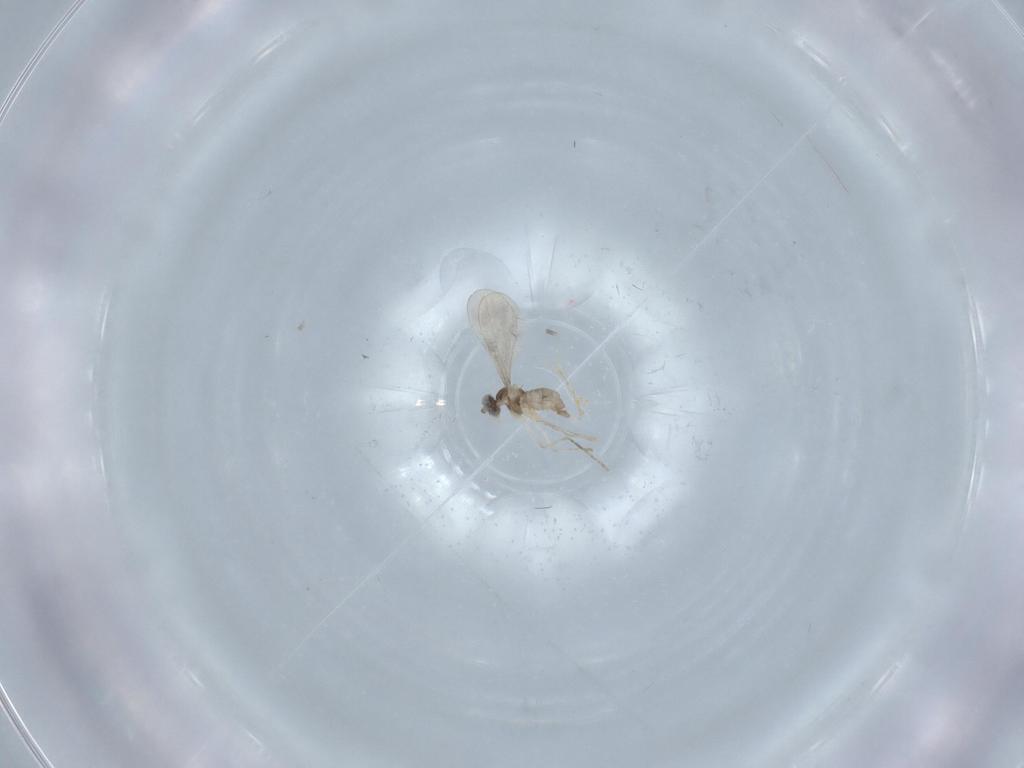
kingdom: Animalia
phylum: Arthropoda
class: Insecta
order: Diptera
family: Cecidomyiidae
